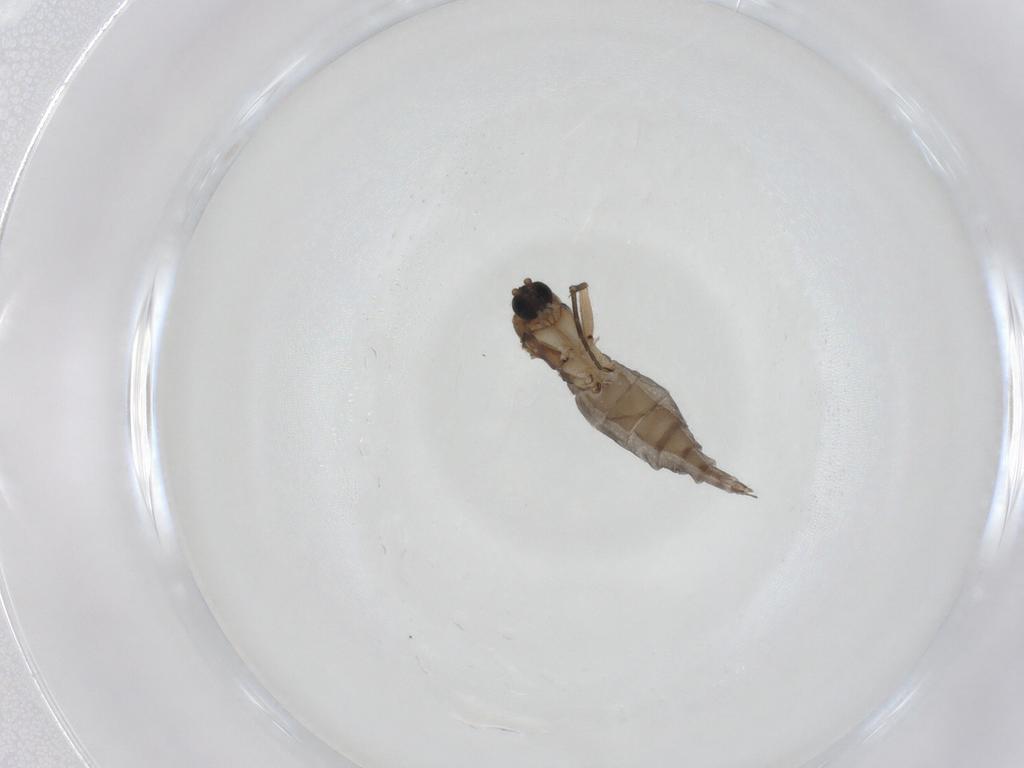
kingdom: Animalia
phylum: Arthropoda
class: Insecta
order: Diptera
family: Sciaridae
